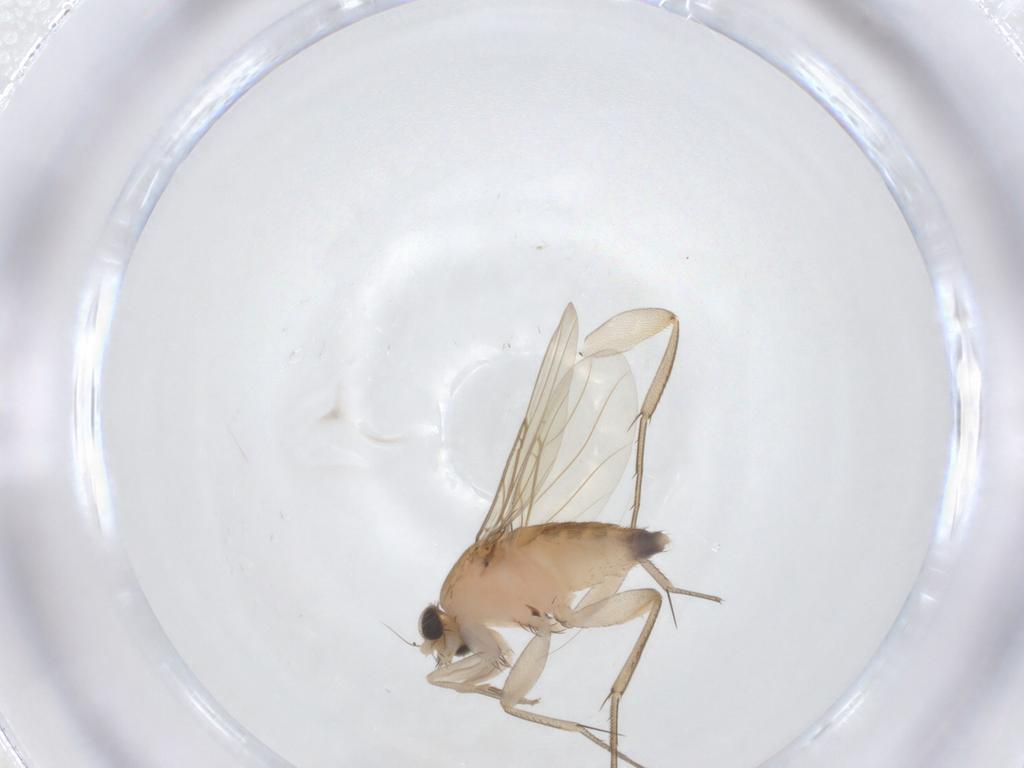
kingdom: Animalia
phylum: Arthropoda
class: Insecta
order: Diptera
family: Phoridae
